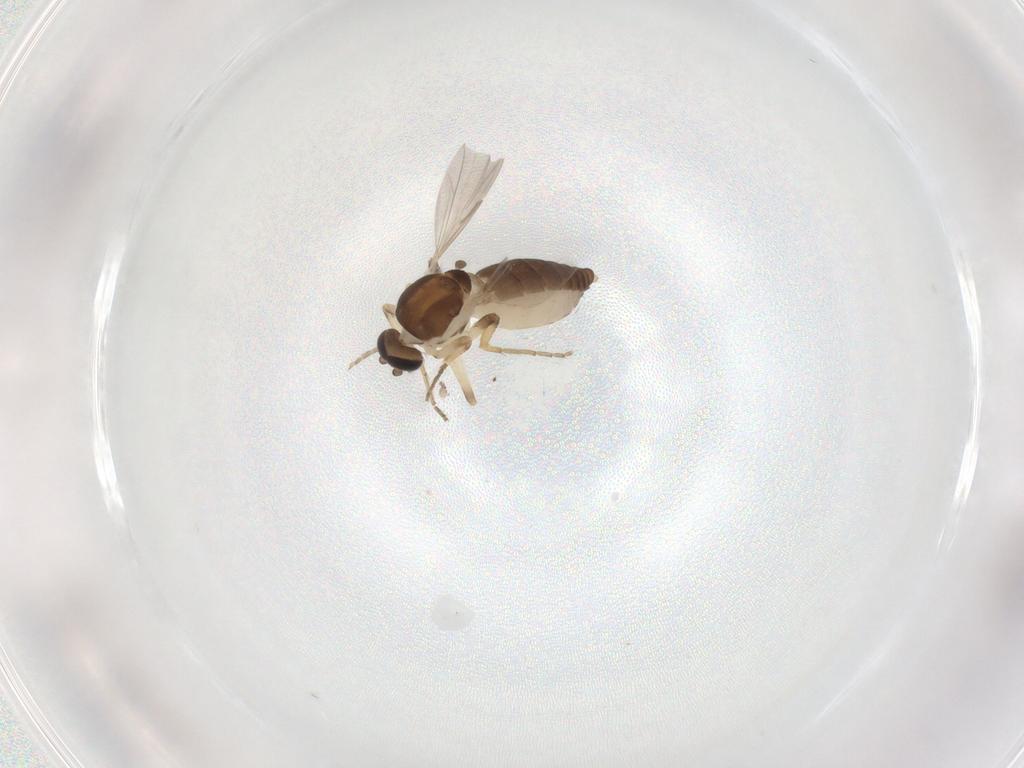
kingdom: Animalia
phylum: Arthropoda
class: Insecta
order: Diptera
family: Cecidomyiidae
